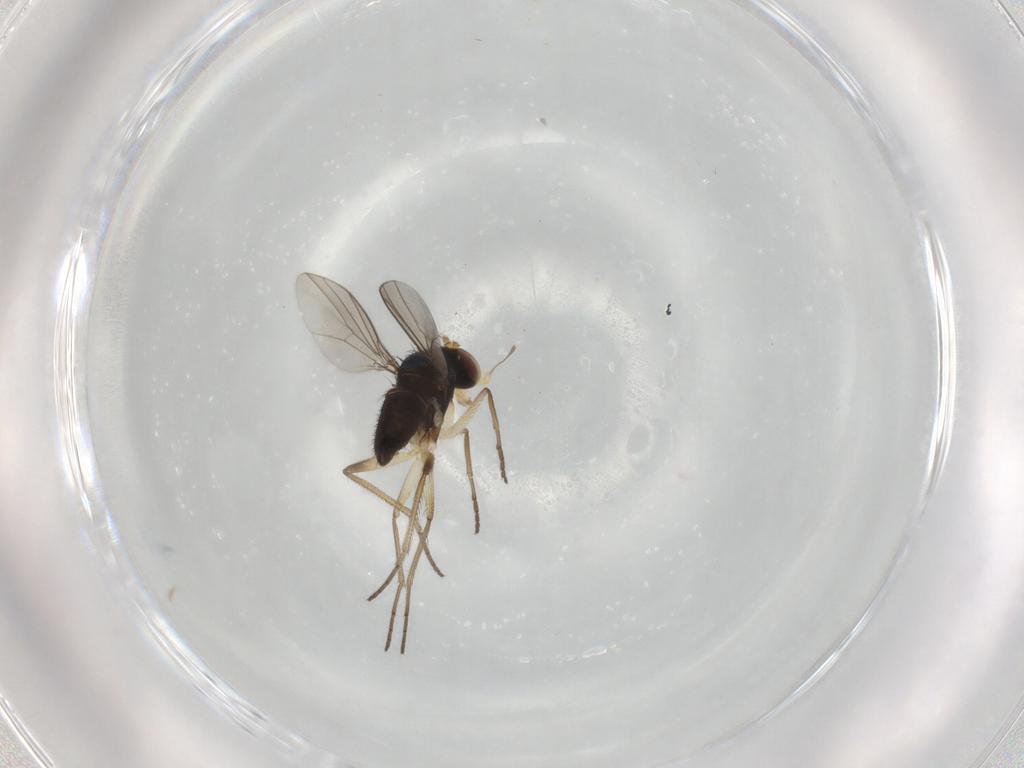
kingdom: Animalia
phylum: Arthropoda
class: Insecta
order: Diptera
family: Dolichopodidae
